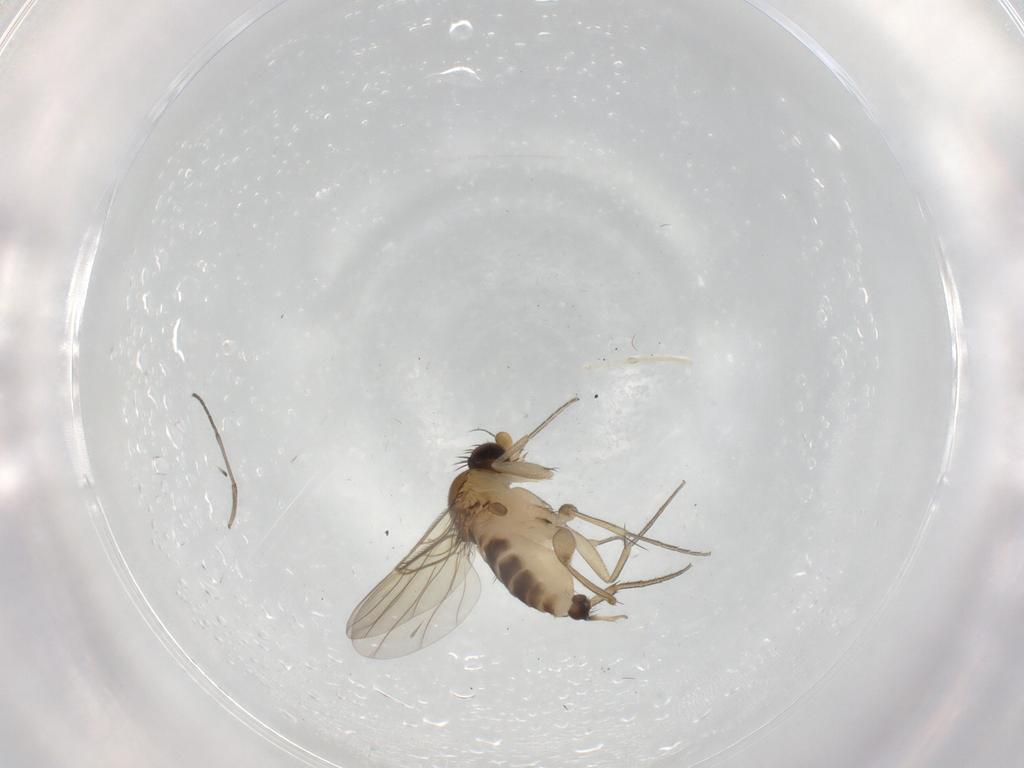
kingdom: Animalia
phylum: Arthropoda
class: Insecta
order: Diptera
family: Sciaridae
